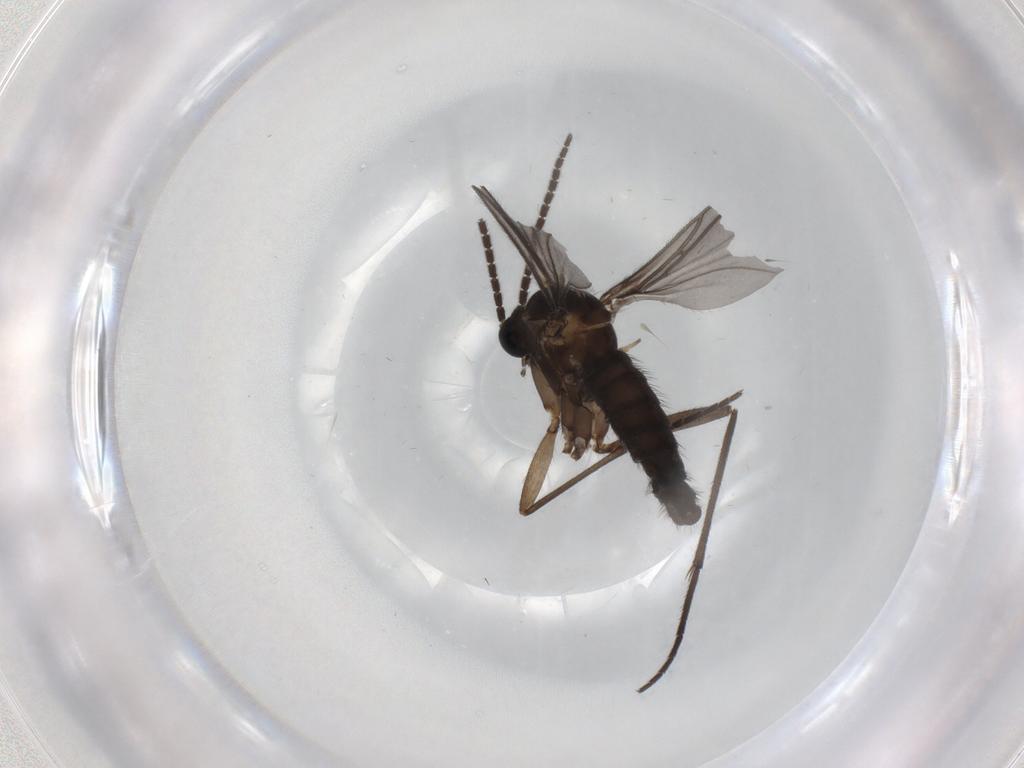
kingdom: Animalia
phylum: Arthropoda
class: Insecta
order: Diptera
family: Sciaridae
